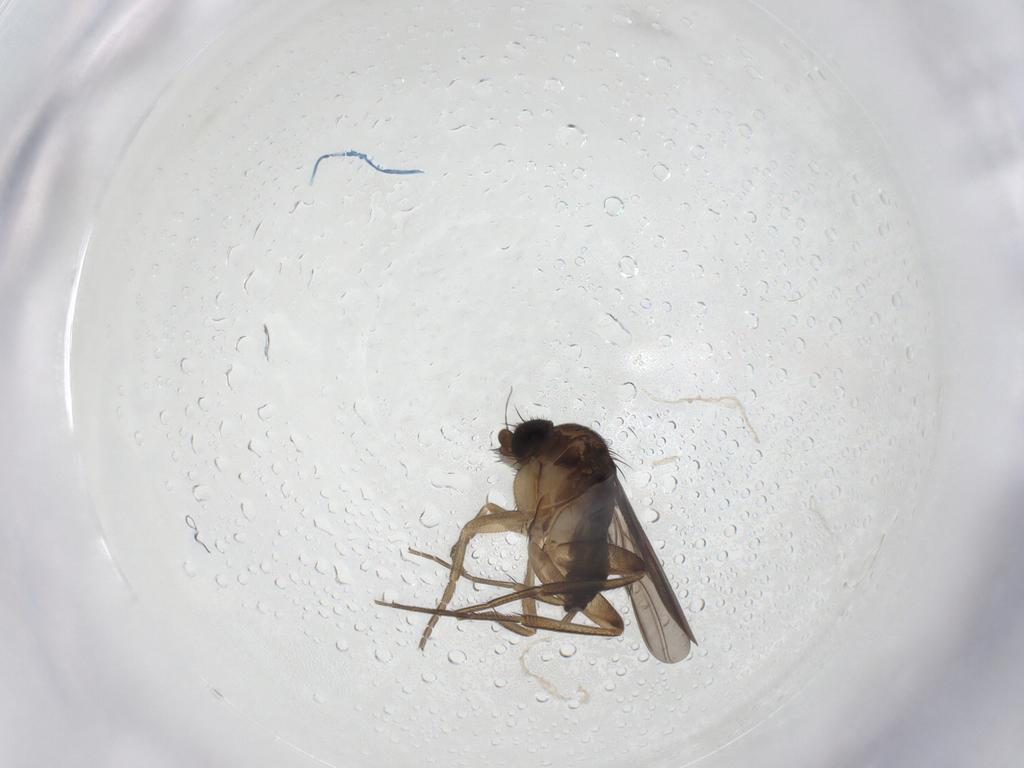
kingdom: Animalia
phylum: Arthropoda
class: Insecta
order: Diptera
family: Phoridae
